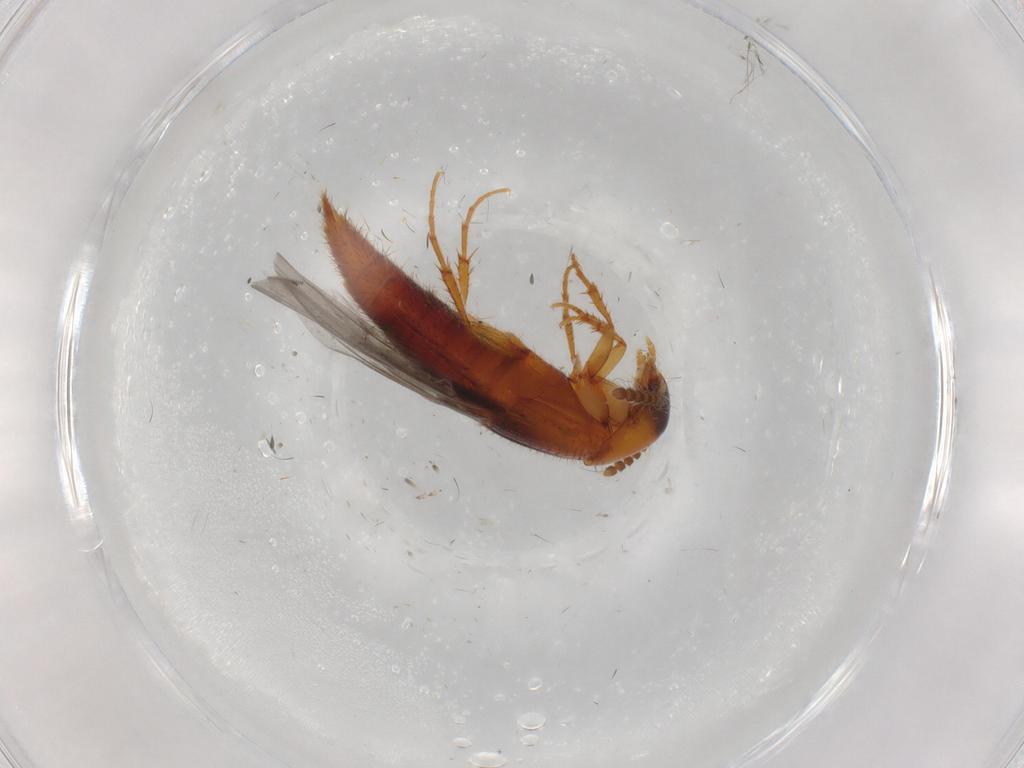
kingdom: Animalia
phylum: Arthropoda
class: Insecta
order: Coleoptera
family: Staphylinidae
